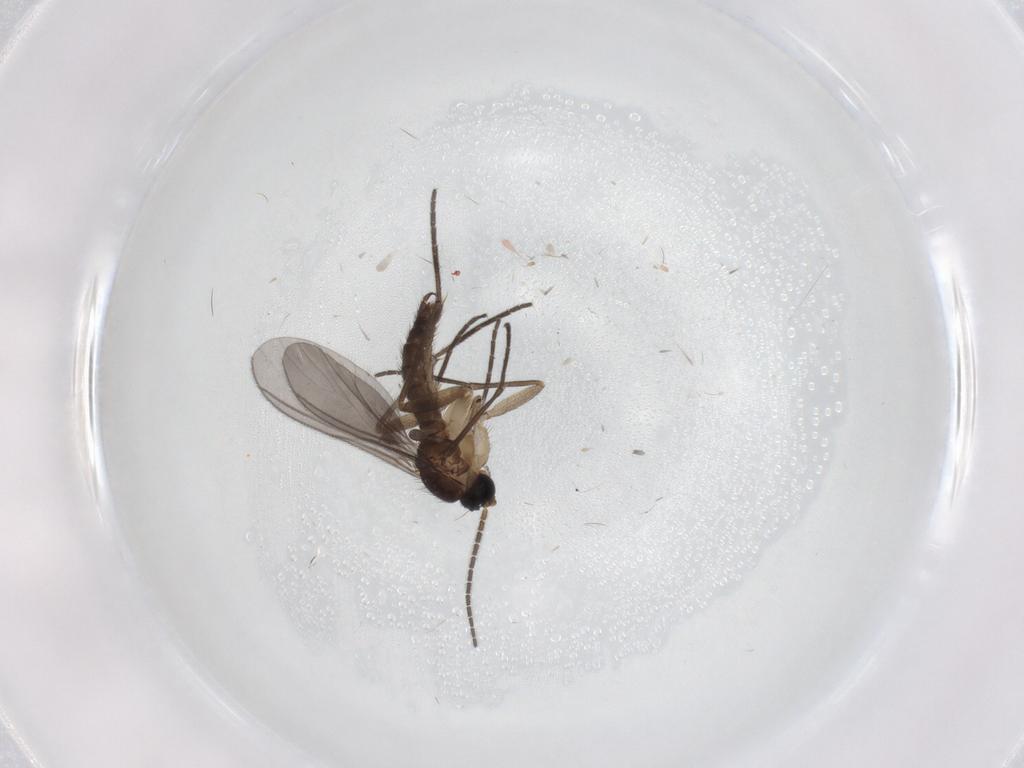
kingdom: Animalia
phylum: Arthropoda
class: Insecta
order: Diptera
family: Sciaridae
